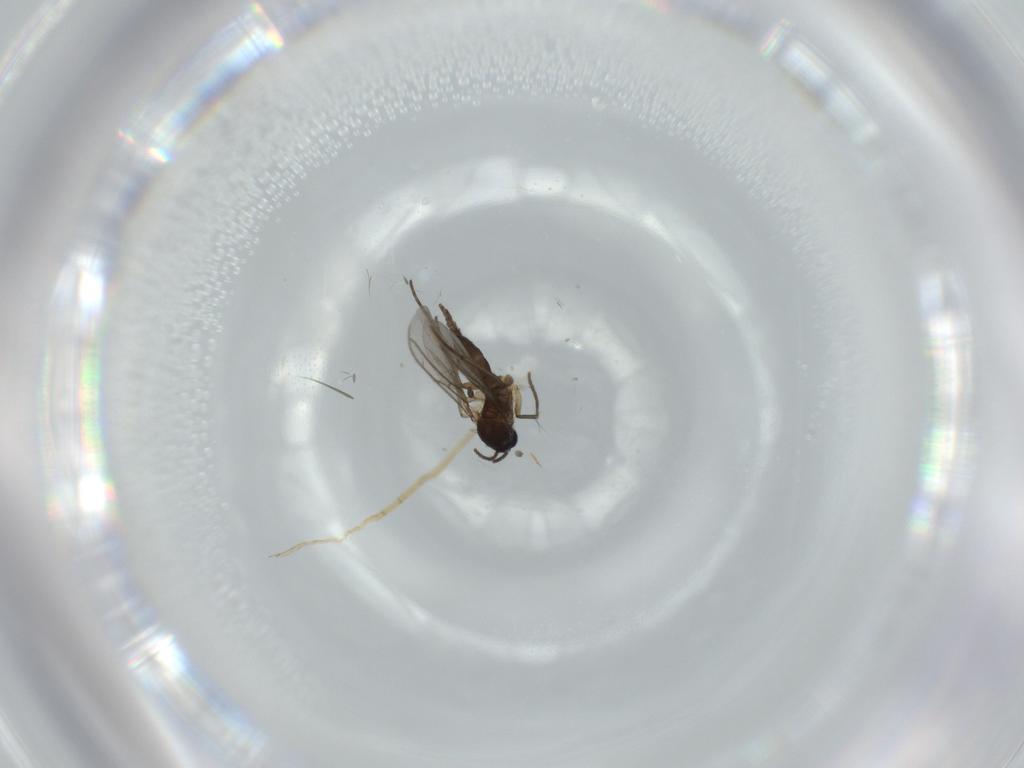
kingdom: Animalia
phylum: Arthropoda
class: Insecta
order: Diptera
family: Sciaridae
